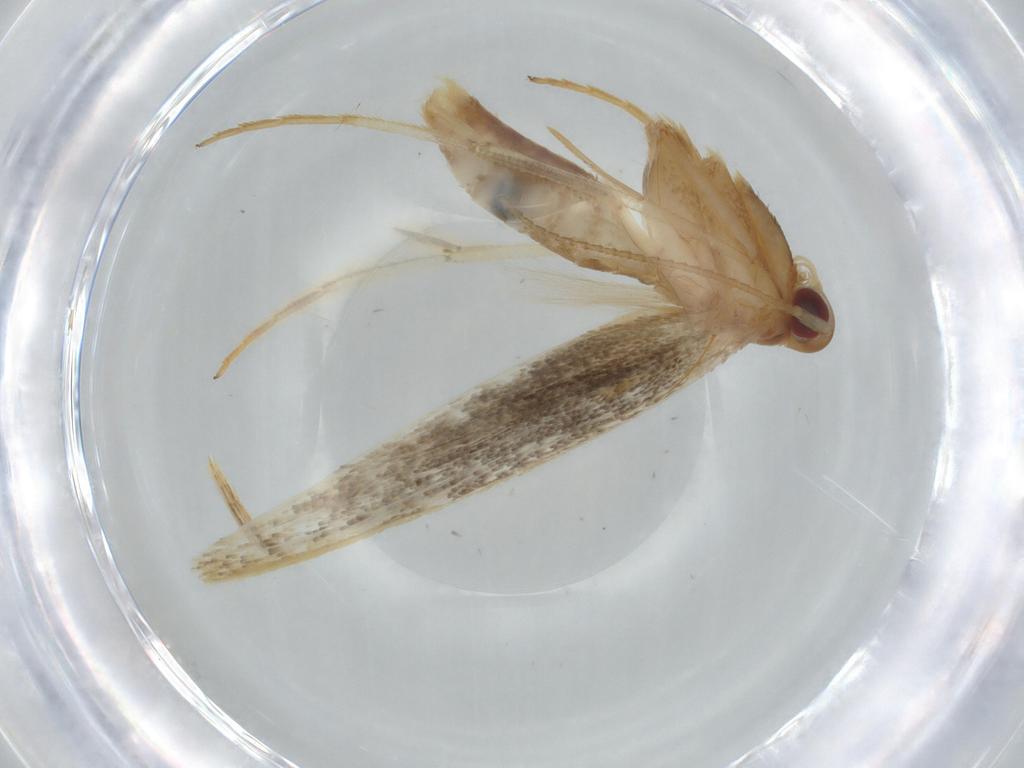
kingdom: Animalia
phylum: Arthropoda
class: Insecta
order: Lepidoptera
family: Cosmopterigidae
